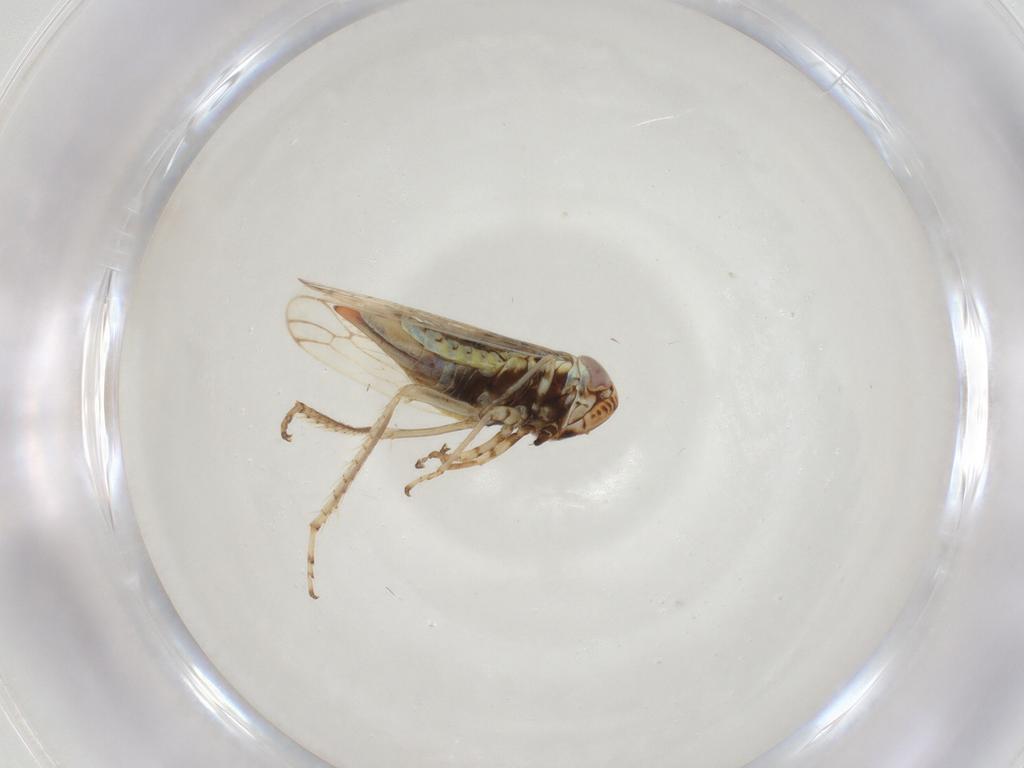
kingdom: Animalia
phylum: Arthropoda
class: Insecta
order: Hemiptera
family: Cicadellidae
